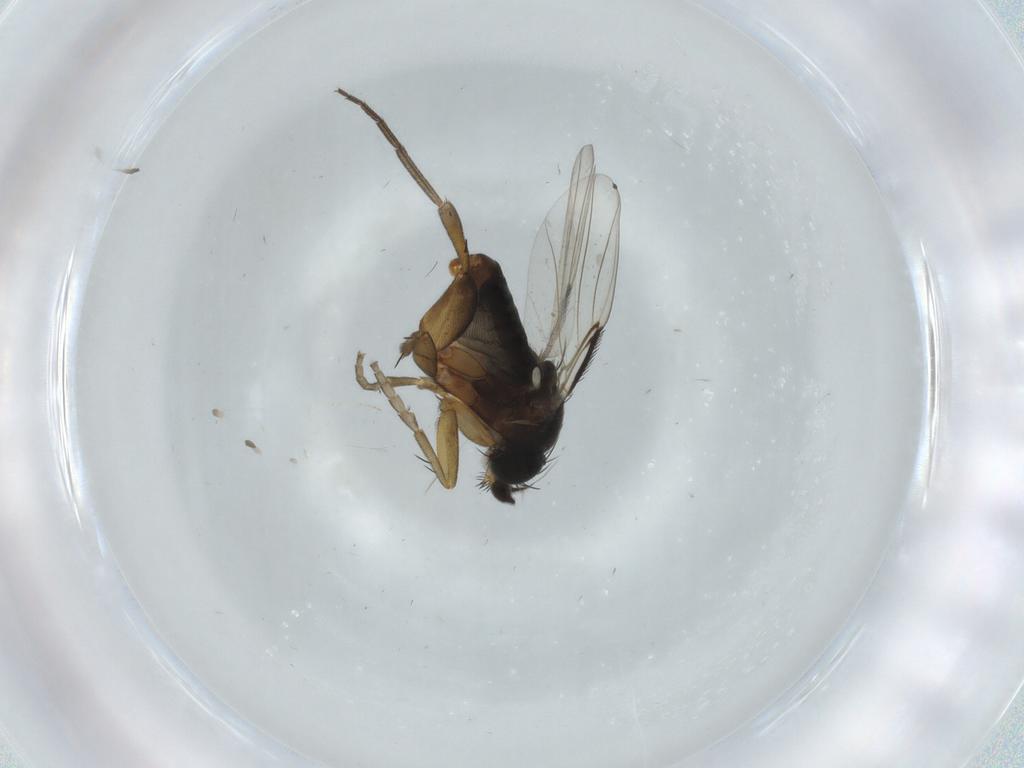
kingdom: Animalia
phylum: Arthropoda
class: Insecta
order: Diptera
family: Phoridae
